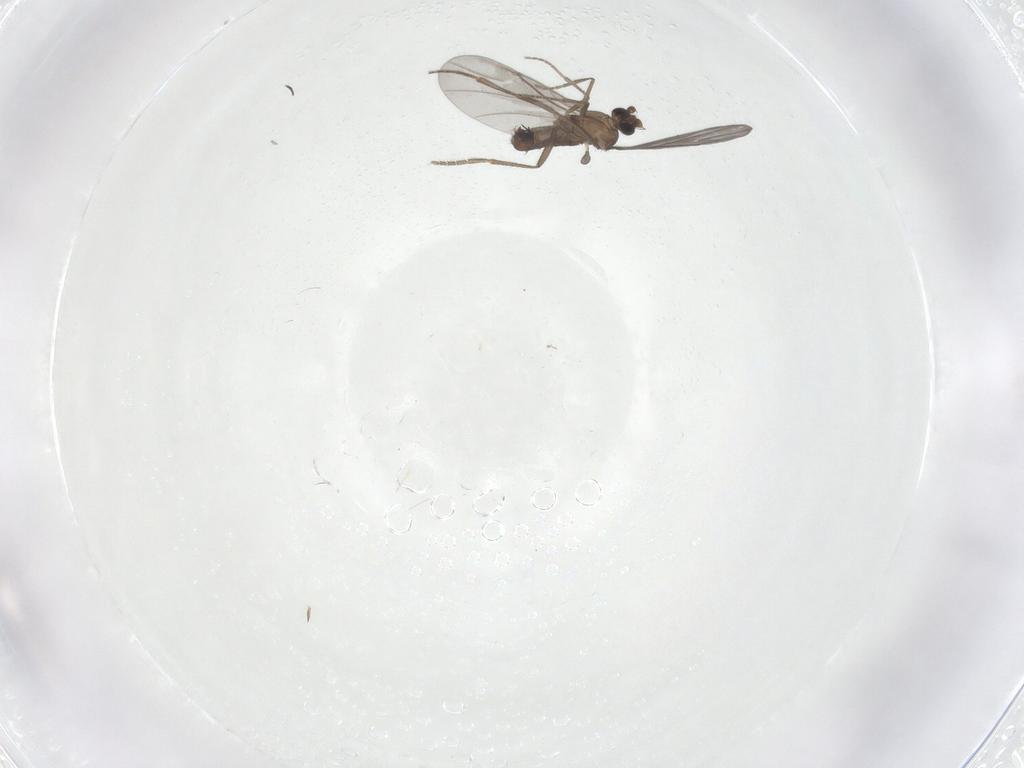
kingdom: Animalia
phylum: Arthropoda
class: Insecta
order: Diptera
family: Phoridae
